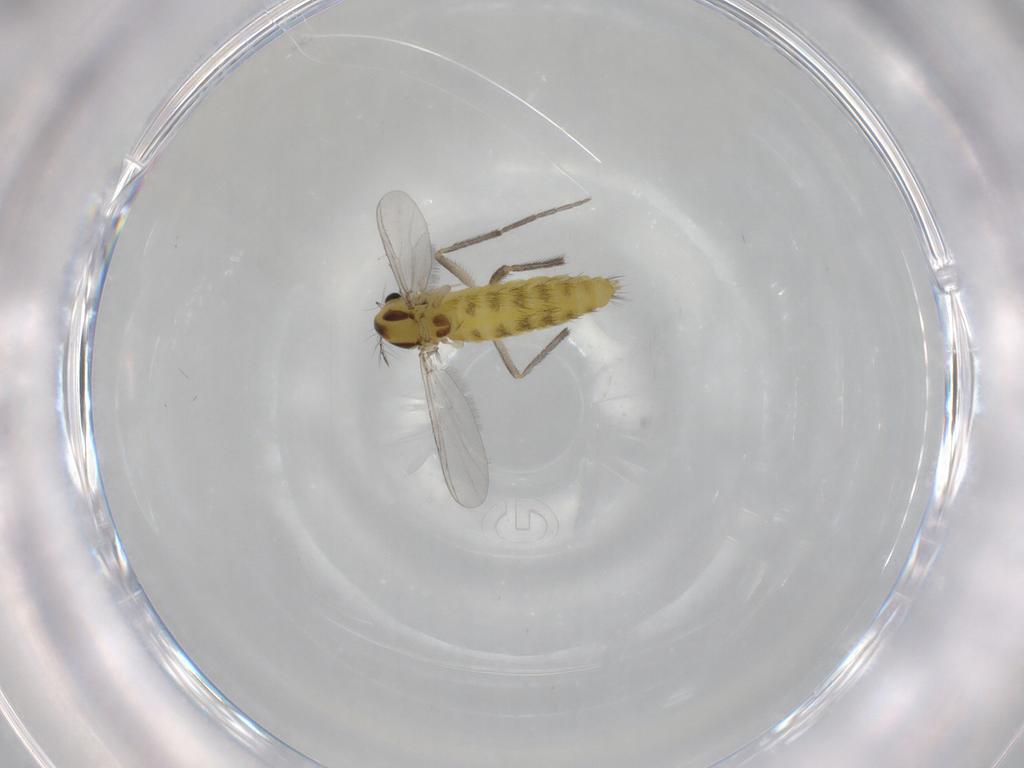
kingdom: Animalia
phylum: Arthropoda
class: Insecta
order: Diptera
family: Chironomidae
